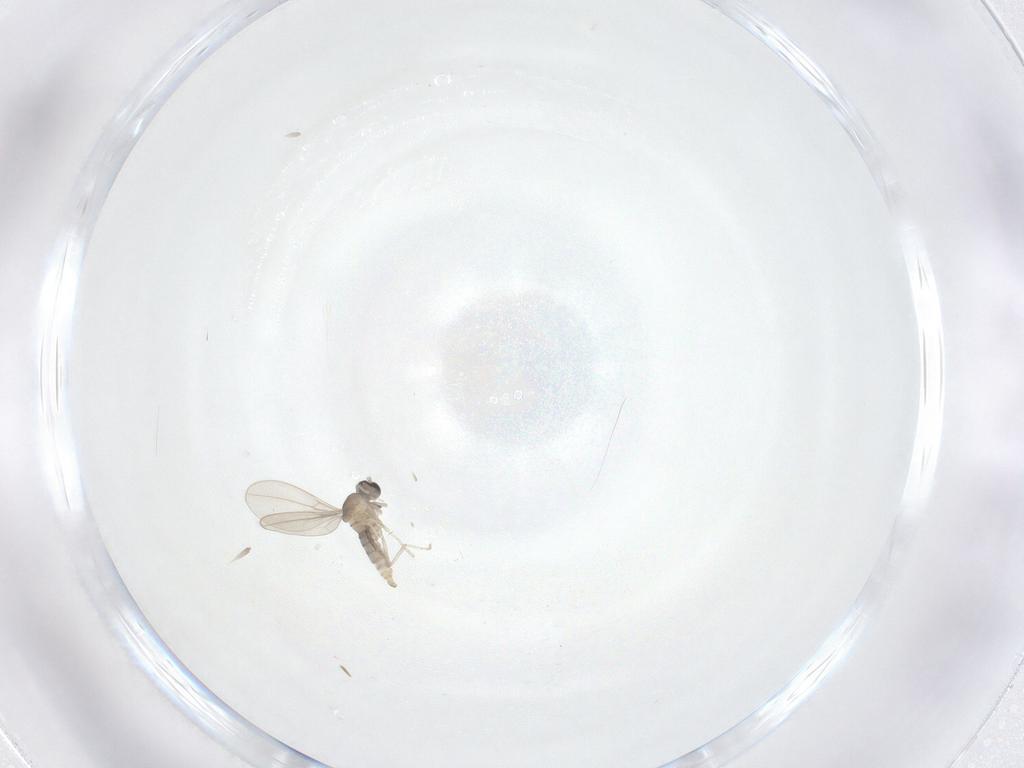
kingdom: Animalia
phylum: Arthropoda
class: Insecta
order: Diptera
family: Cecidomyiidae
